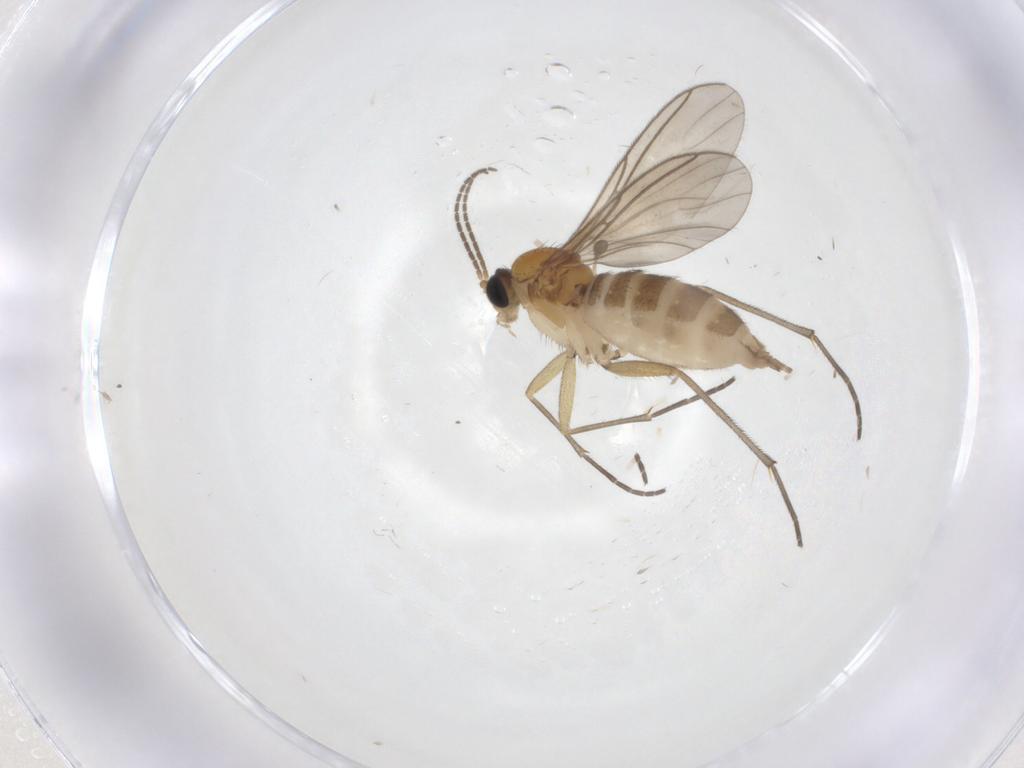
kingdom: Animalia
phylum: Arthropoda
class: Insecta
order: Diptera
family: Sciaridae
